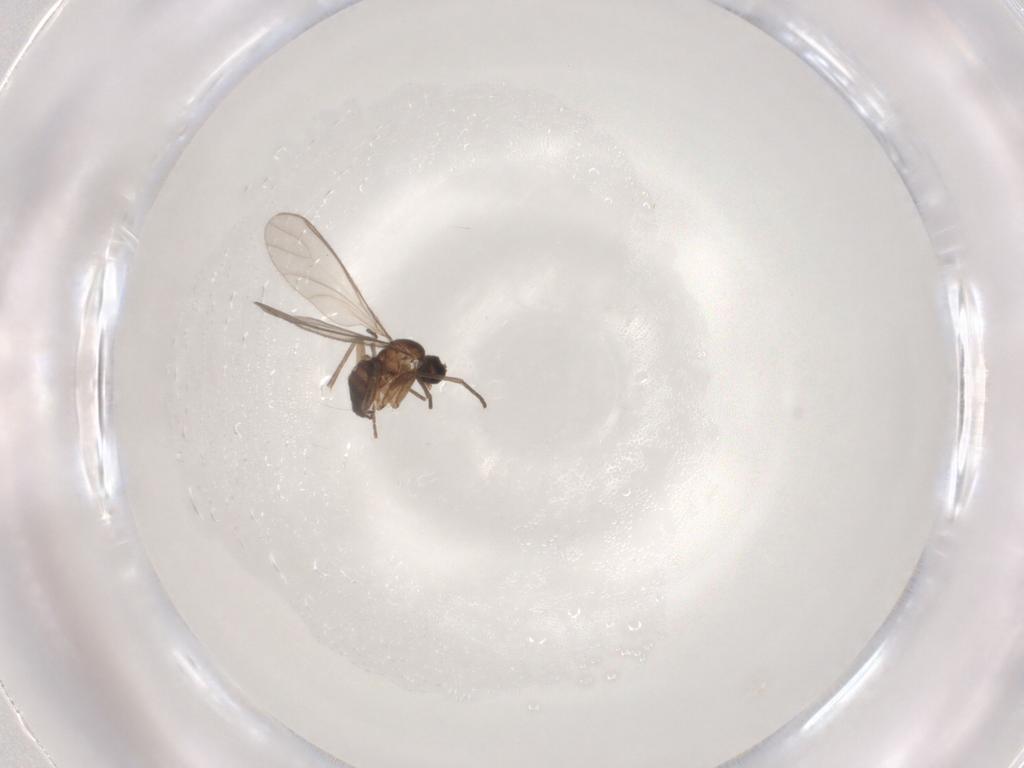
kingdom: Animalia
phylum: Arthropoda
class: Insecta
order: Diptera
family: Sciaridae
